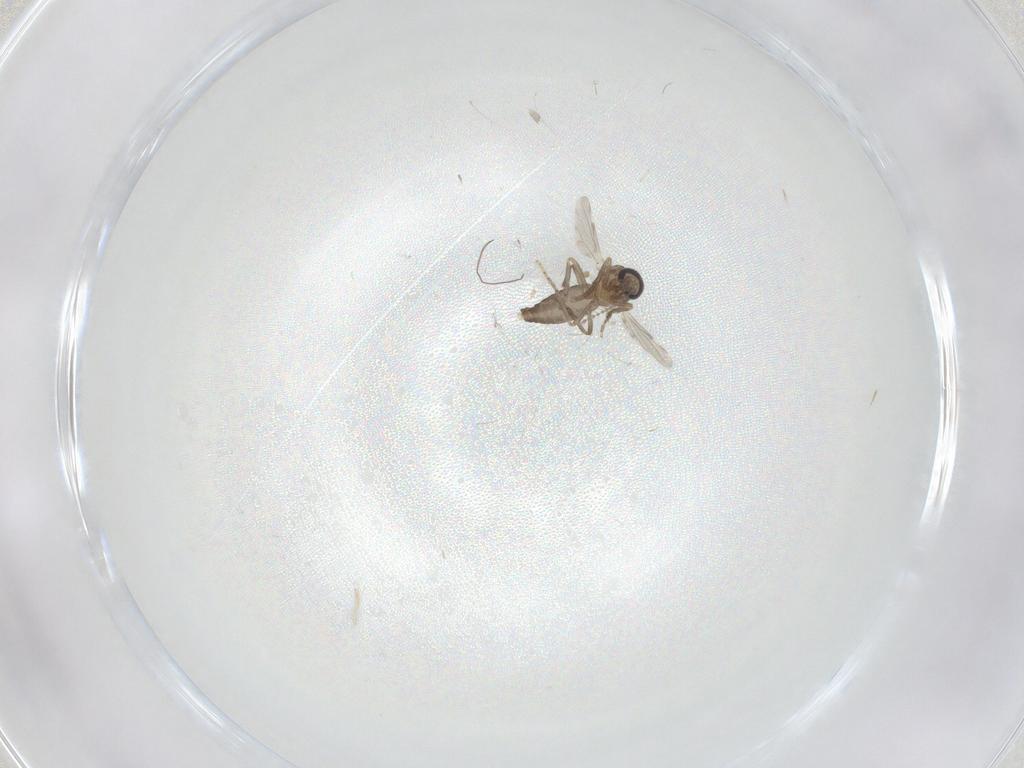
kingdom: Animalia
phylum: Arthropoda
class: Insecta
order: Diptera
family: Ceratopogonidae
